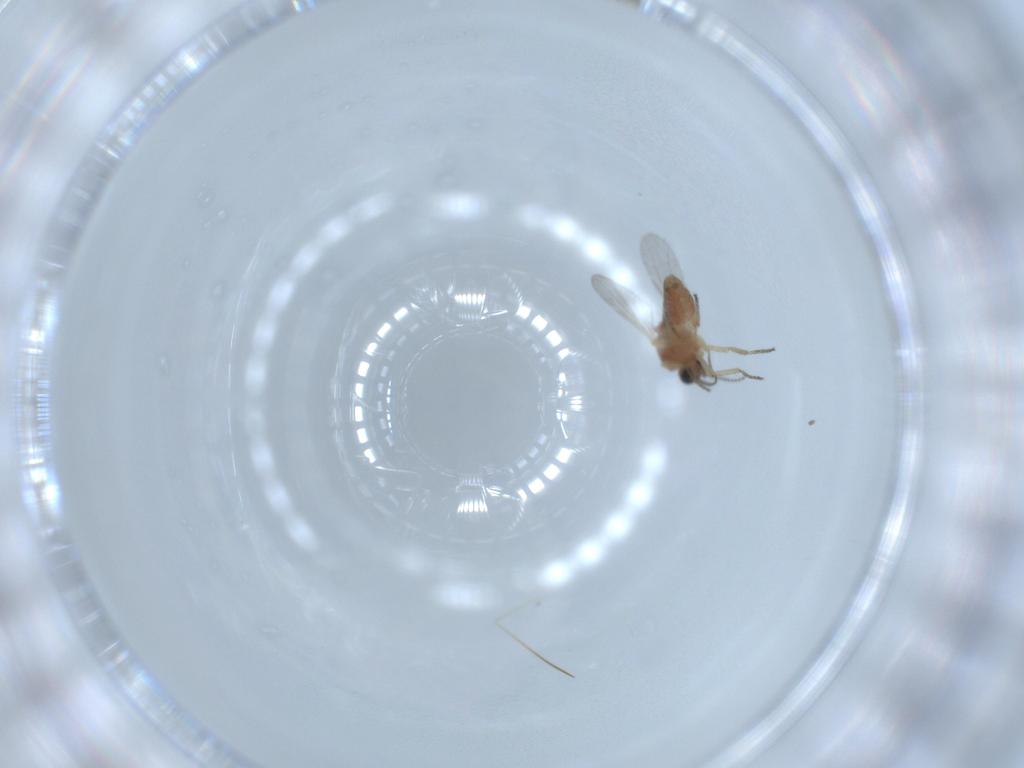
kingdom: Animalia
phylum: Arthropoda
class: Insecta
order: Diptera
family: Ceratopogonidae
